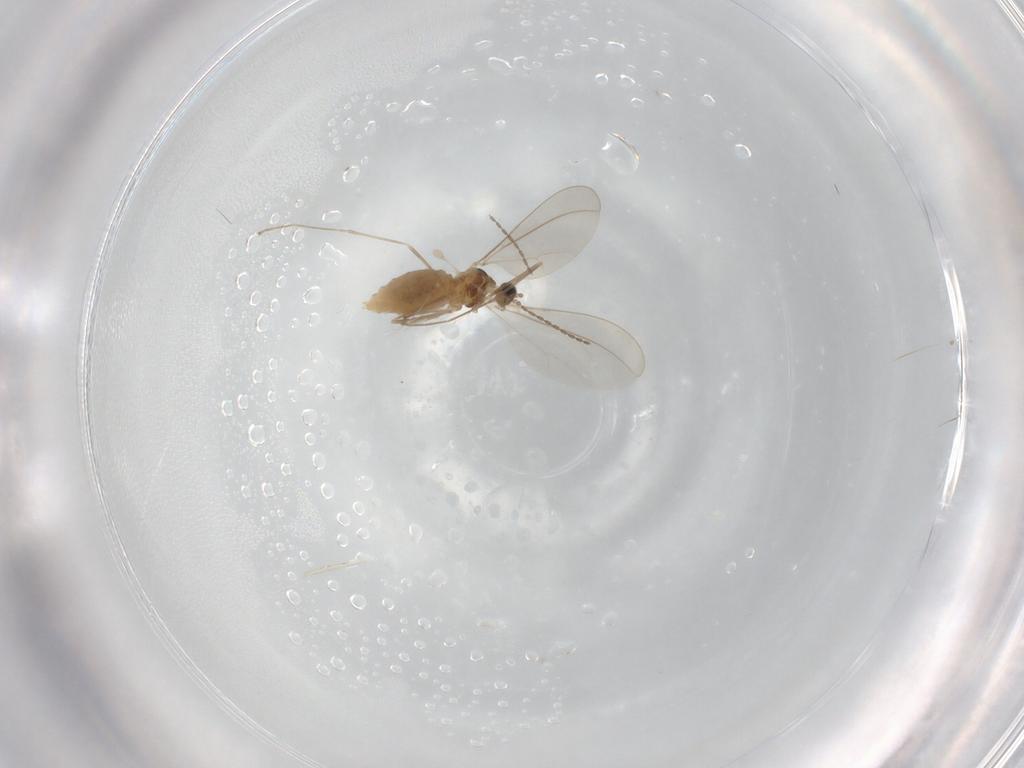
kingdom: Animalia
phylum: Arthropoda
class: Insecta
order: Diptera
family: Cecidomyiidae
